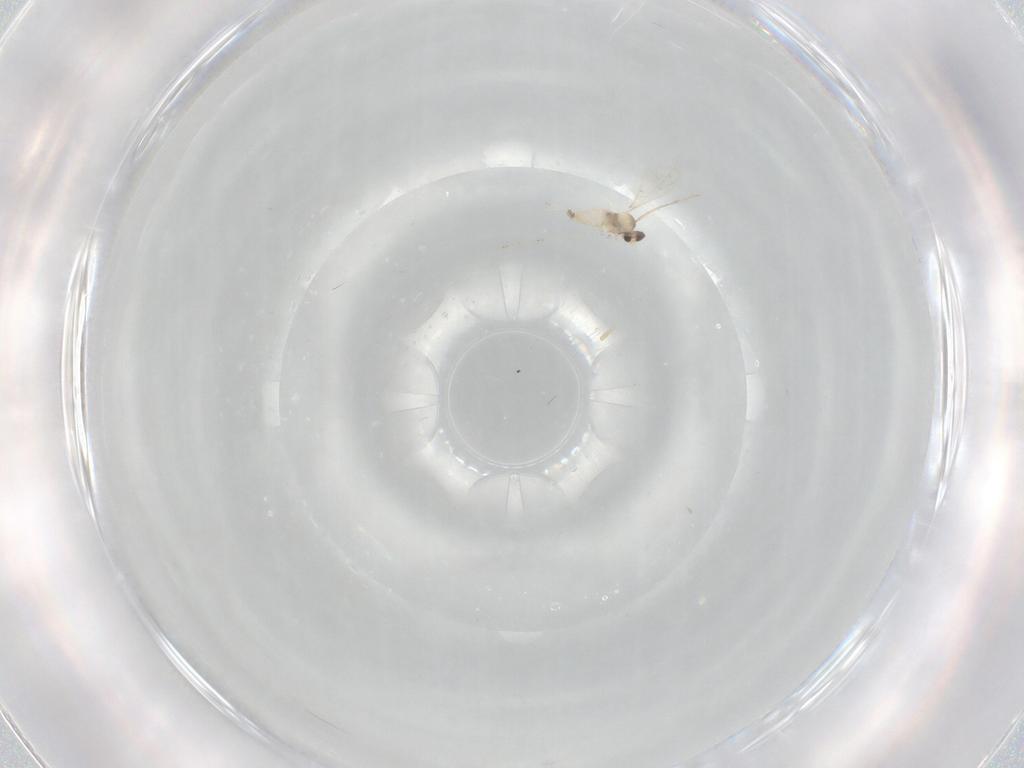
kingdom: Animalia
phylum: Arthropoda
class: Insecta
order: Diptera
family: Cecidomyiidae
